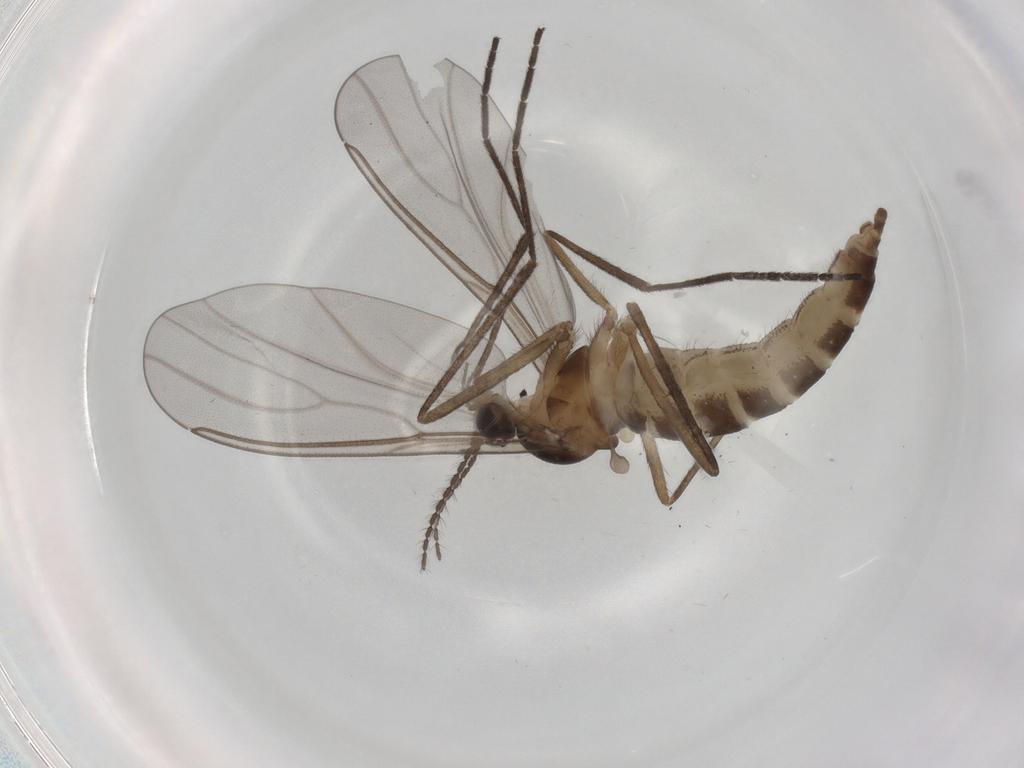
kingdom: Animalia
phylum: Arthropoda
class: Insecta
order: Diptera
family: Cecidomyiidae
